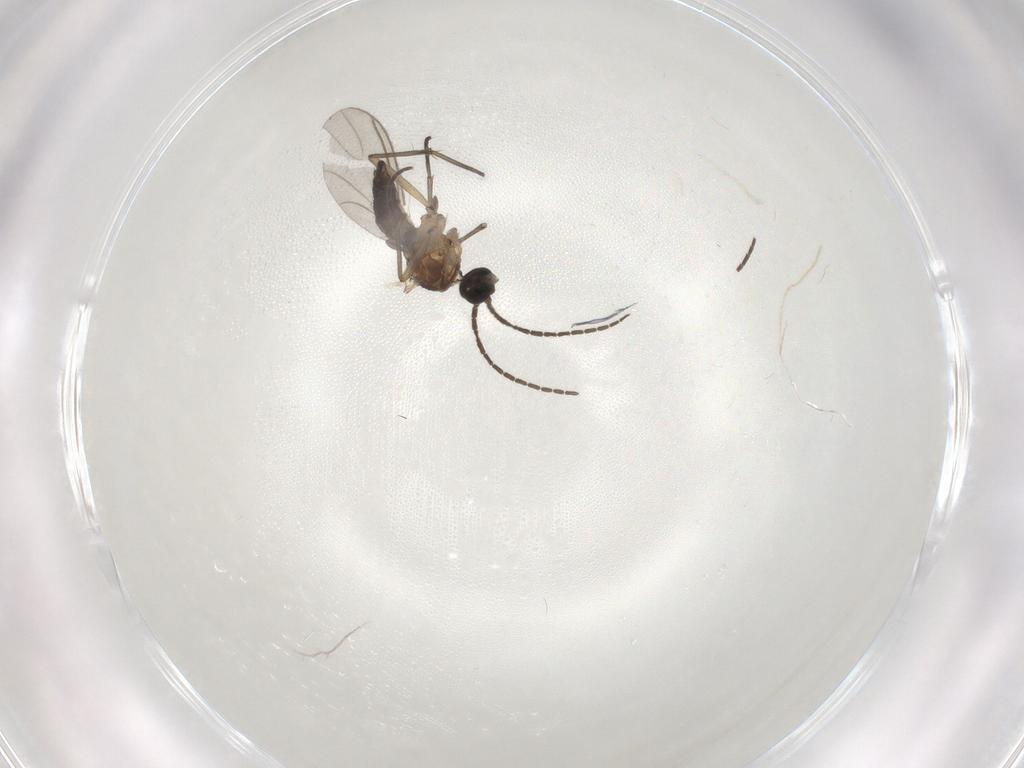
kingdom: Animalia
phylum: Arthropoda
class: Insecta
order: Diptera
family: Sciaridae
